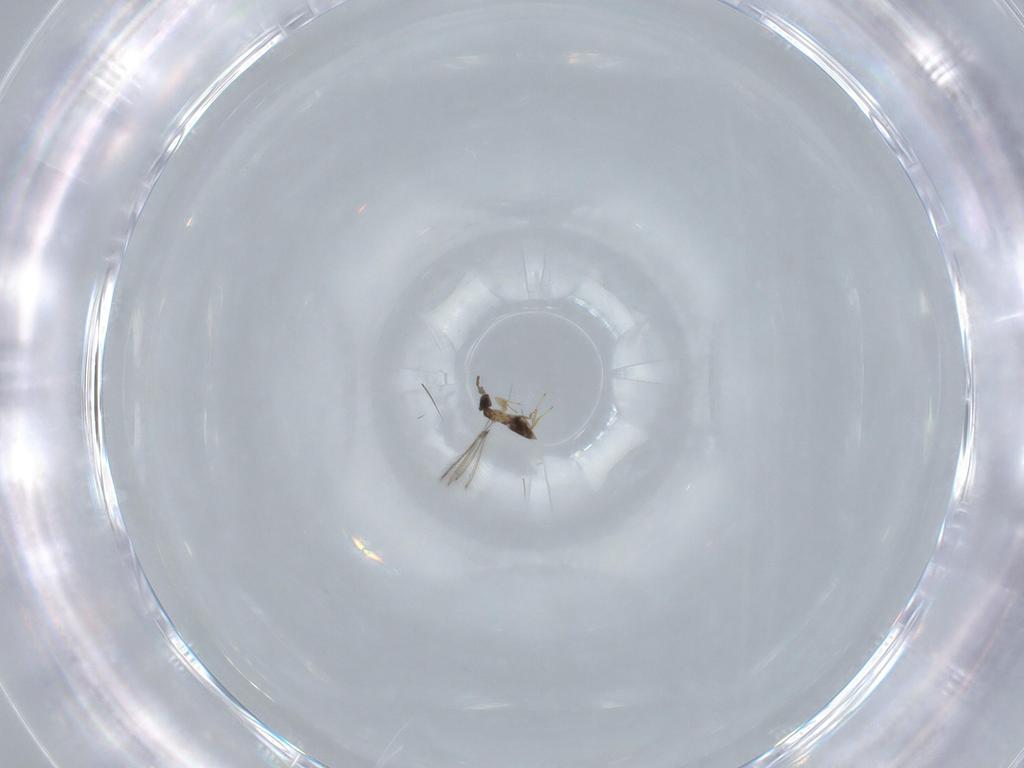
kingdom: Animalia
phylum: Arthropoda
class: Insecta
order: Hymenoptera
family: Mymaridae
